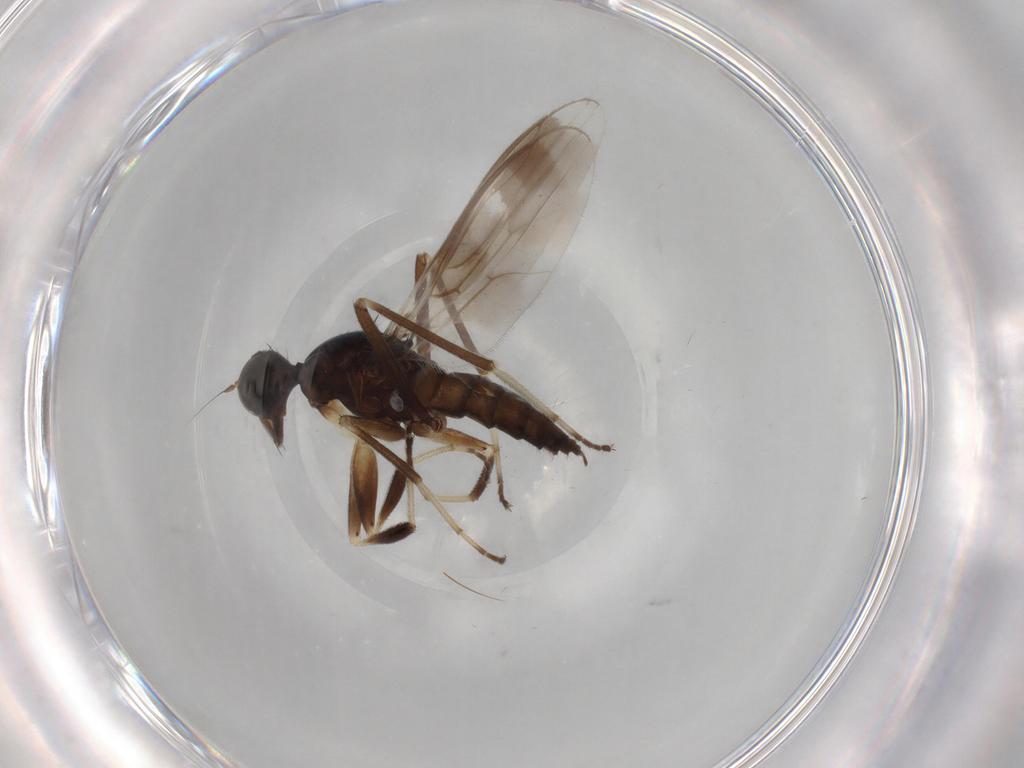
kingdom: Animalia
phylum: Arthropoda
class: Insecta
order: Diptera
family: Hybotidae
